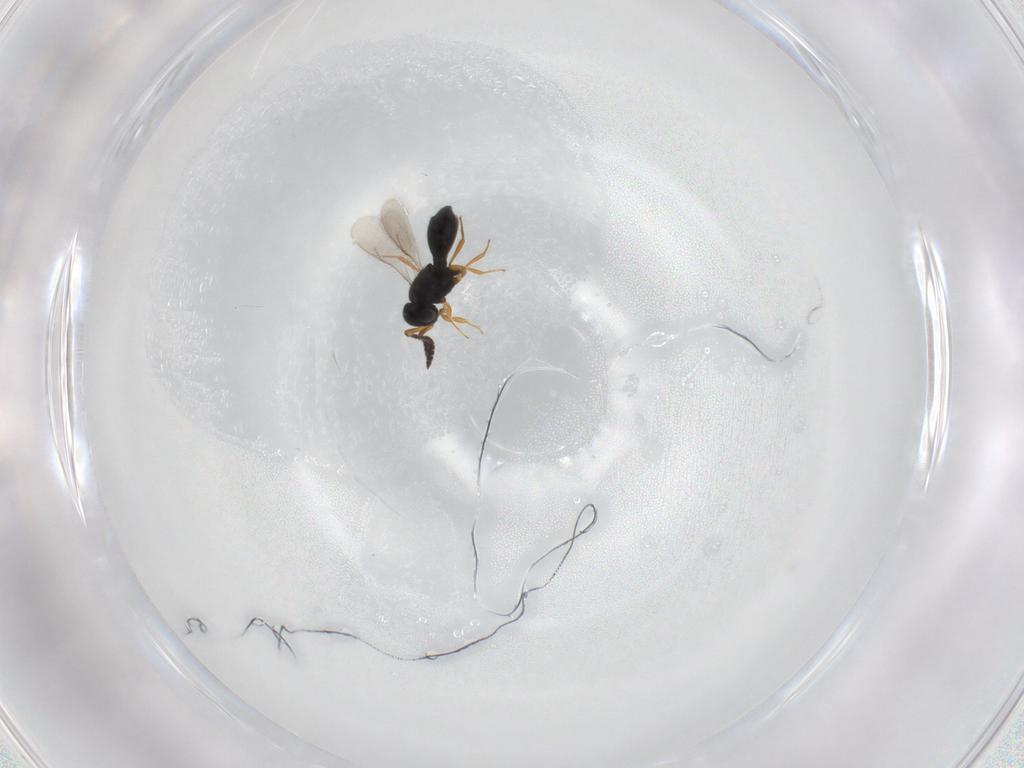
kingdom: Animalia
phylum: Arthropoda
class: Insecta
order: Hymenoptera
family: Scelionidae
